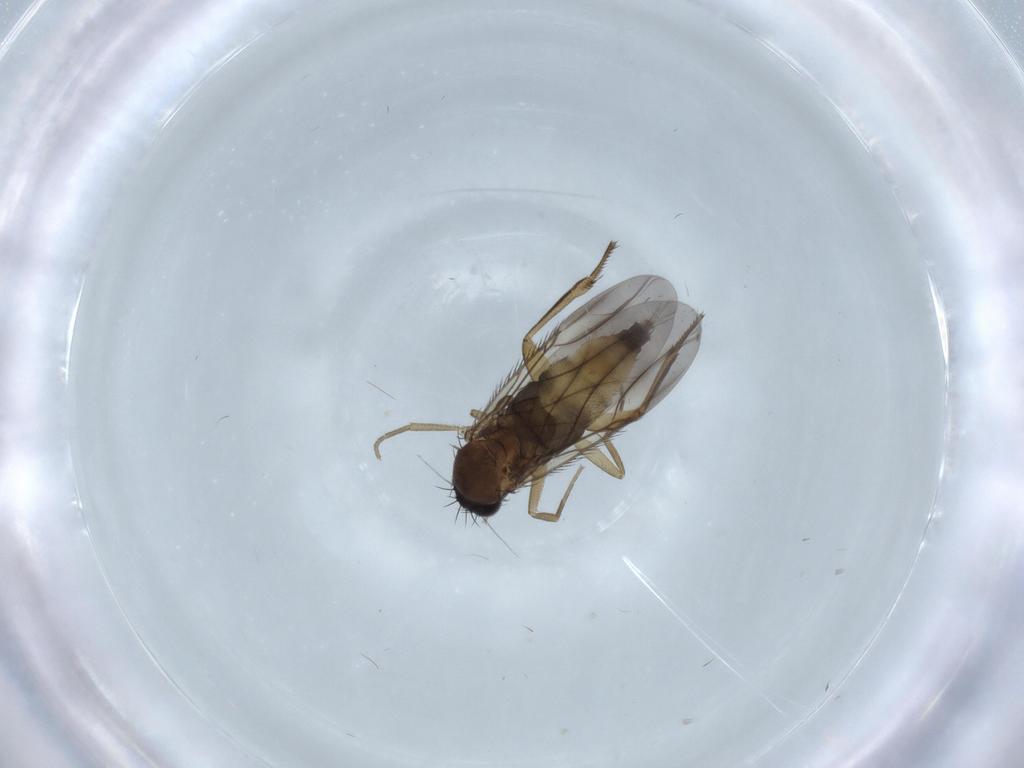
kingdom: Animalia
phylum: Arthropoda
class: Insecta
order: Diptera
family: Phoridae
